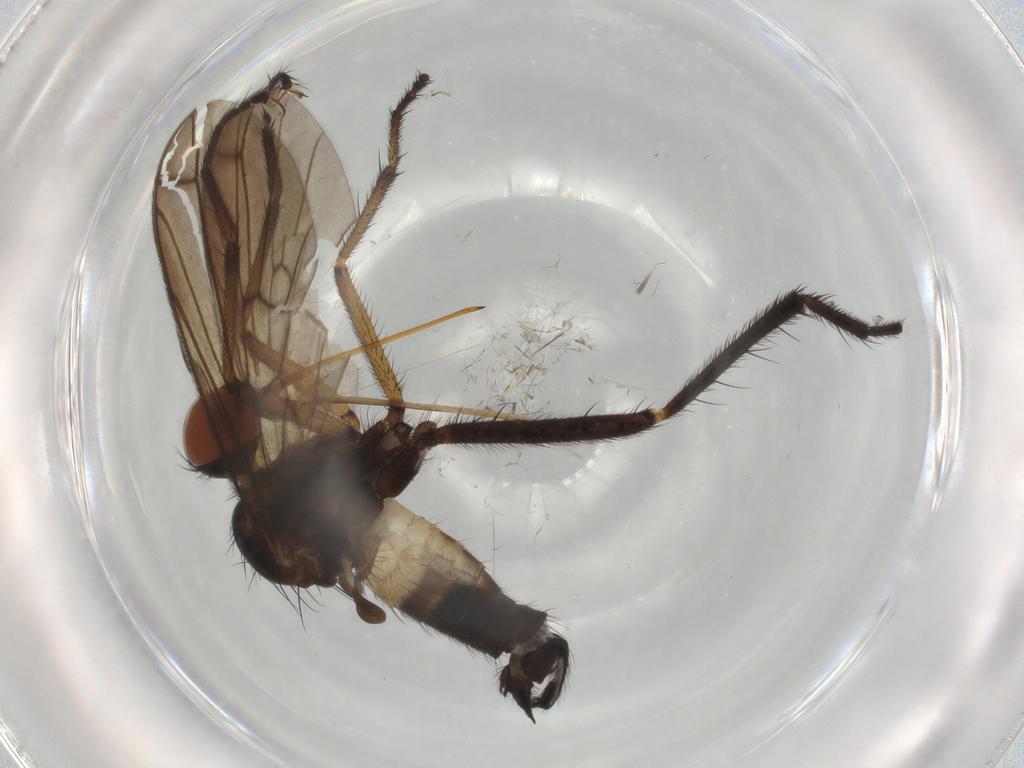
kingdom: Animalia
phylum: Arthropoda
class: Insecta
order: Diptera
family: Empididae
